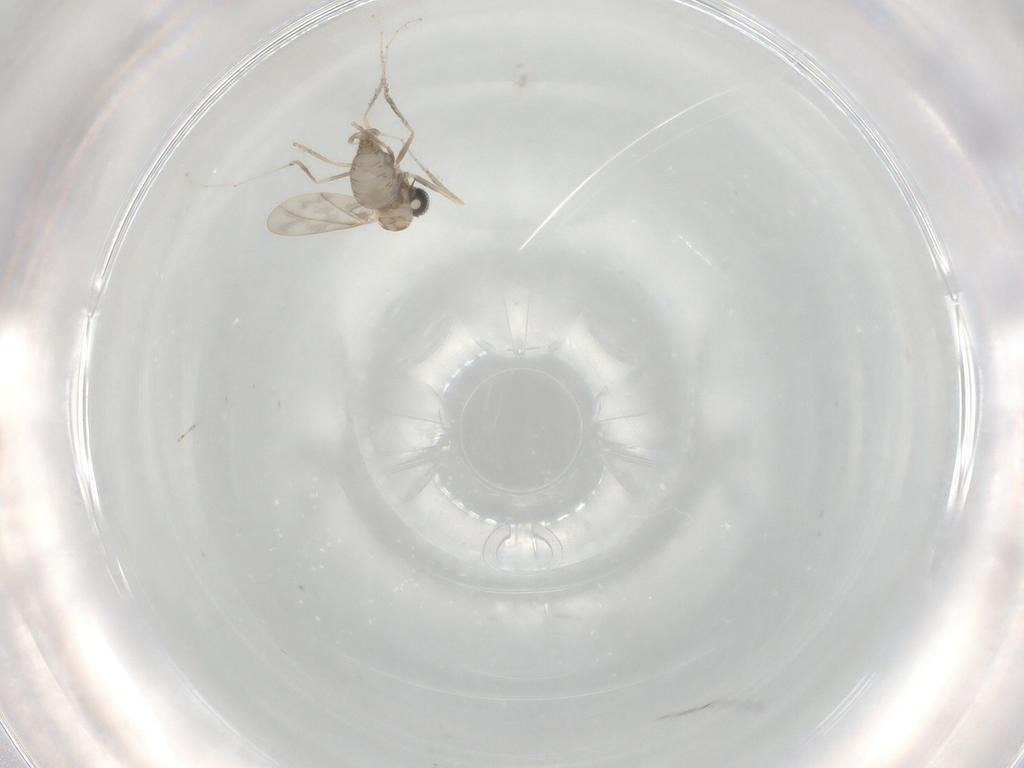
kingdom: Animalia
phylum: Arthropoda
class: Insecta
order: Diptera
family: Cecidomyiidae
